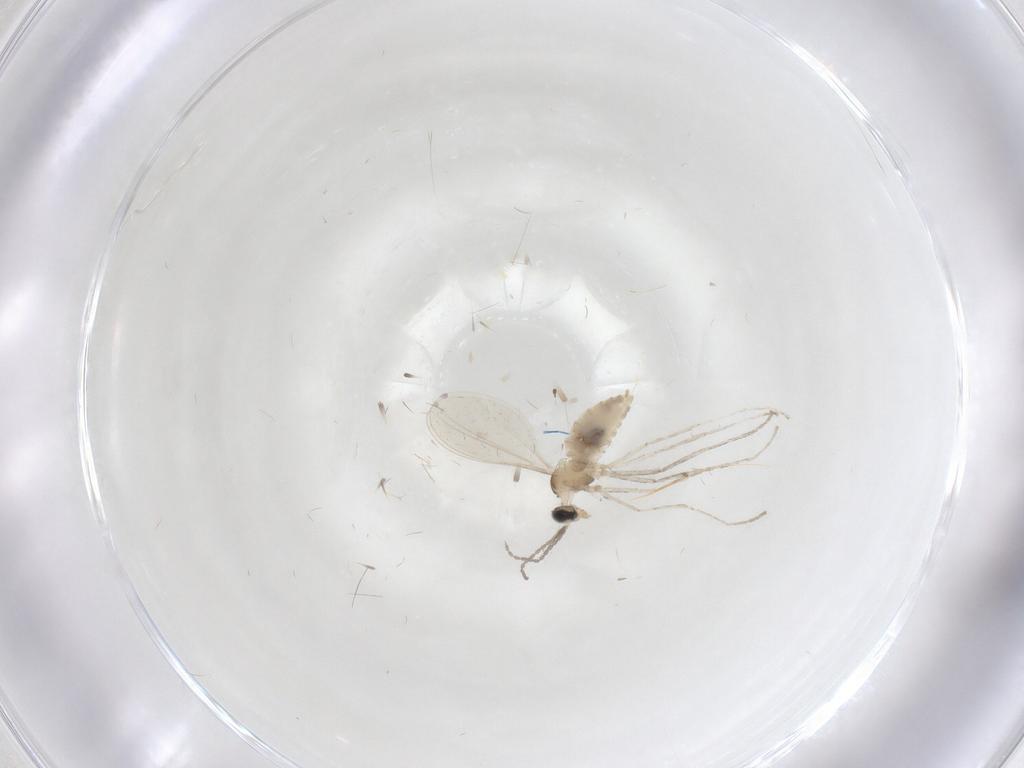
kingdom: Animalia
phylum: Arthropoda
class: Insecta
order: Diptera
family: Cecidomyiidae
